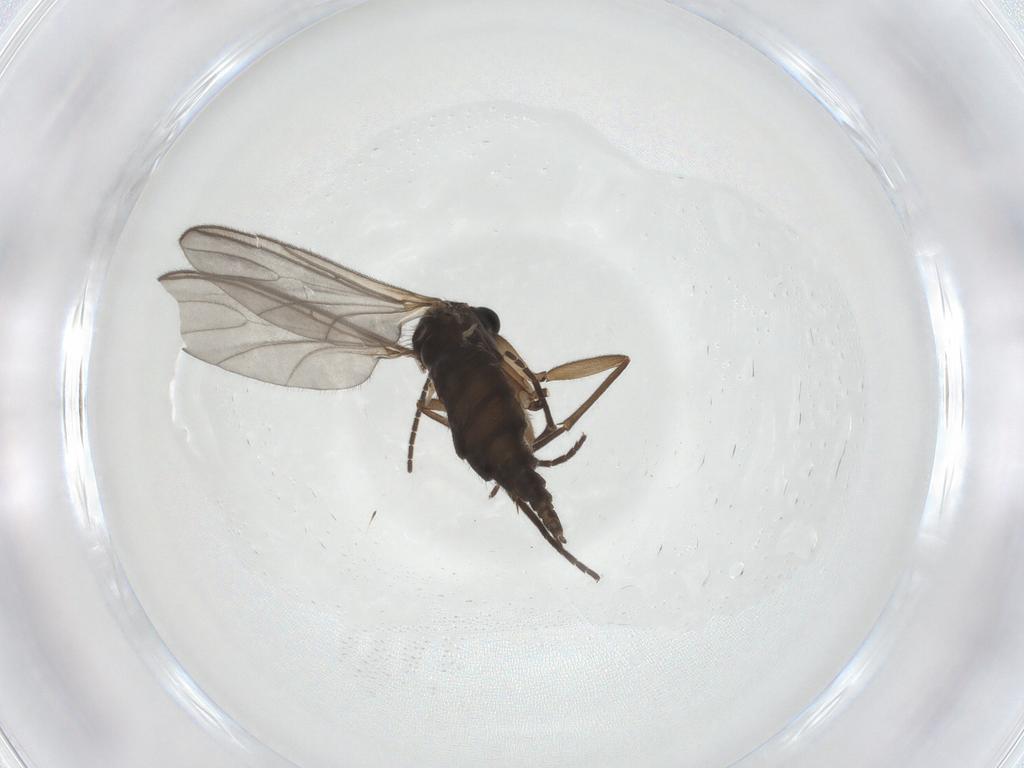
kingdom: Animalia
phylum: Arthropoda
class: Insecta
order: Diptera
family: Sciaridae
